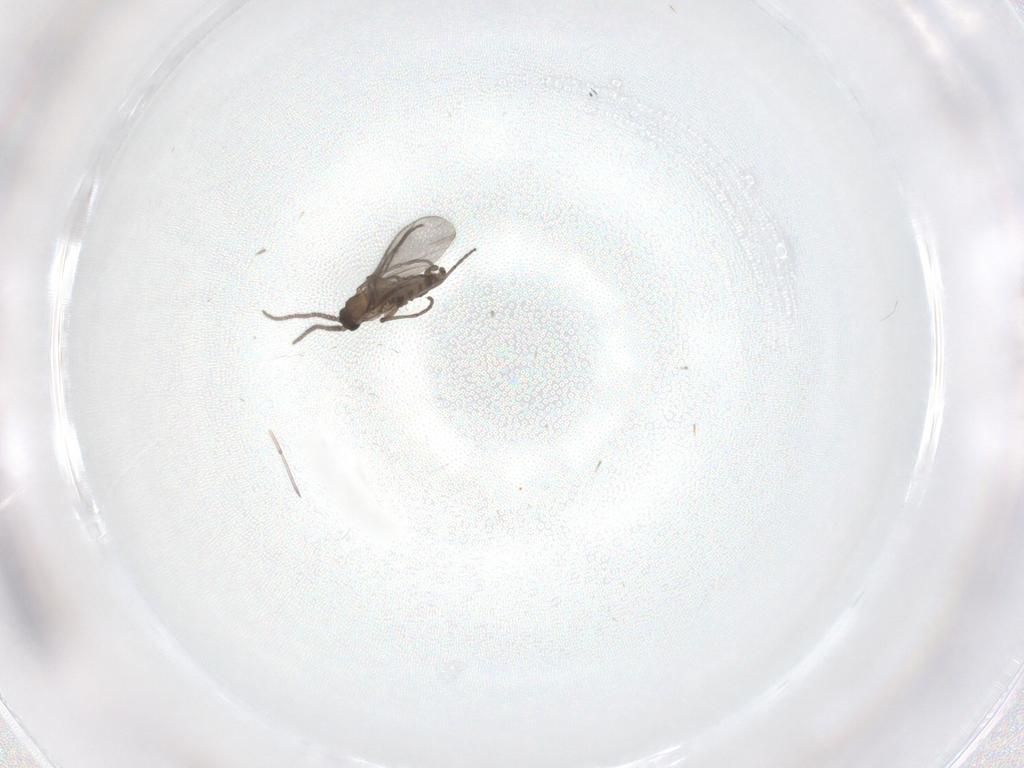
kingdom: Animalia
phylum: Arthropoda
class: Insecta
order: Diptera
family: Sciaridae
